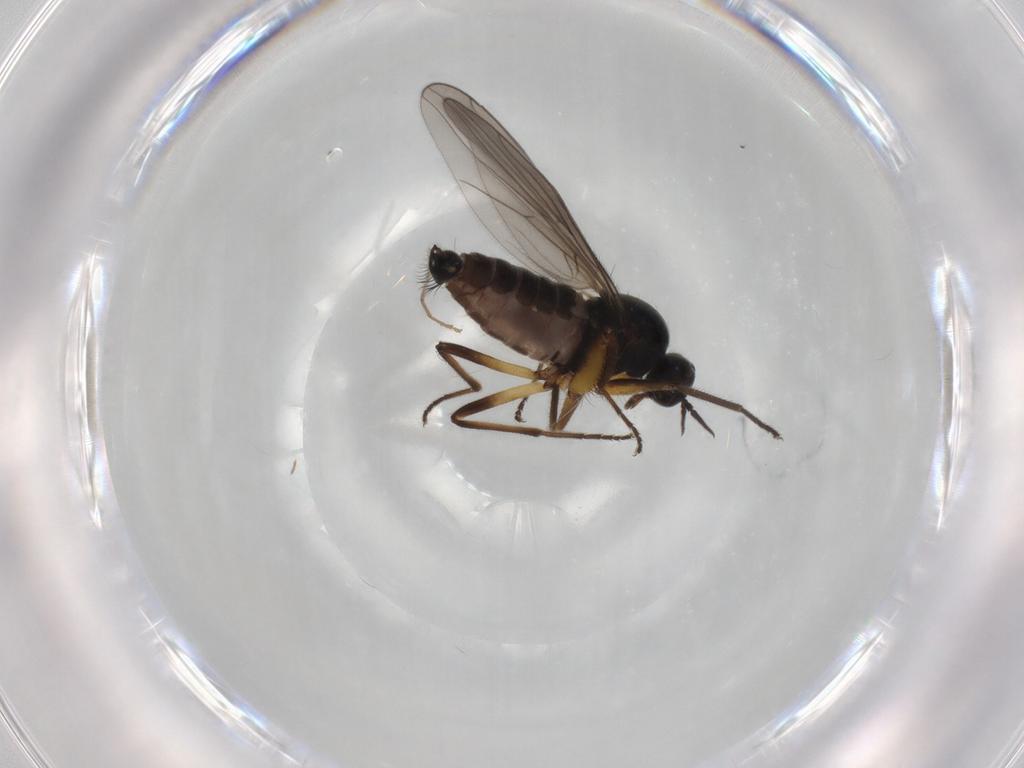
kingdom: Animalia
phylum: Arthropoda
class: Insecta
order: Diptera
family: Hybotidae
